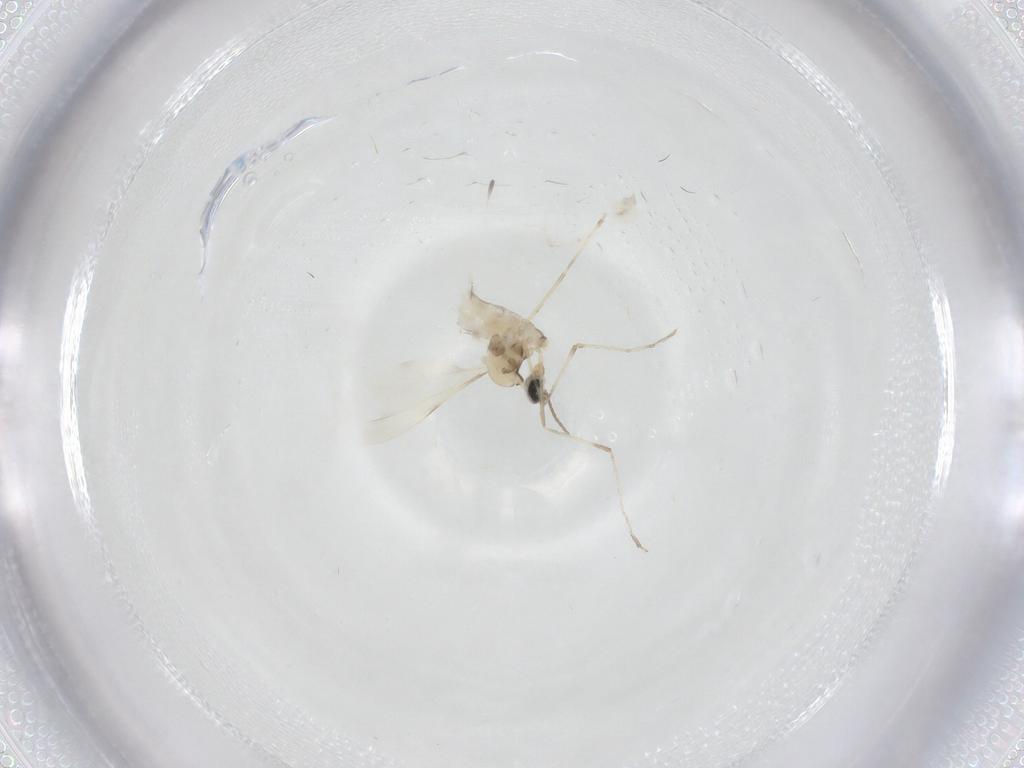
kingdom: Animalia
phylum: Arthropoda
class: Insecta
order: Diptera
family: Cecidomyiidae
